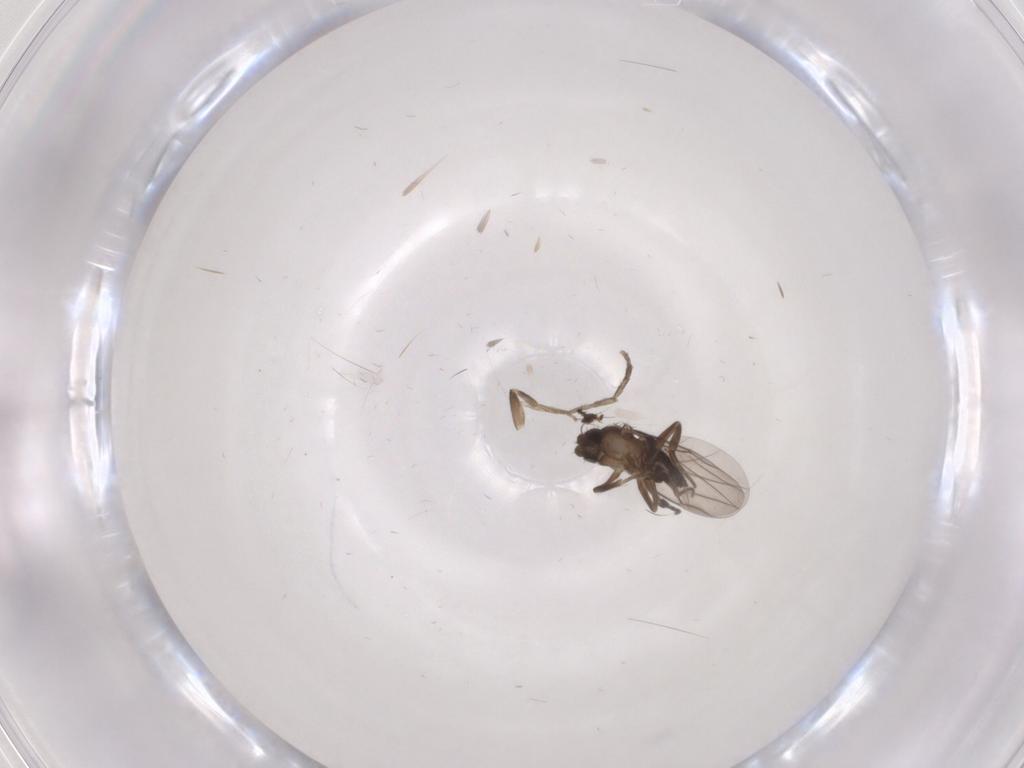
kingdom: Animalia
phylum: Arthropoda
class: Insecta
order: Diptera
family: Phoridae
